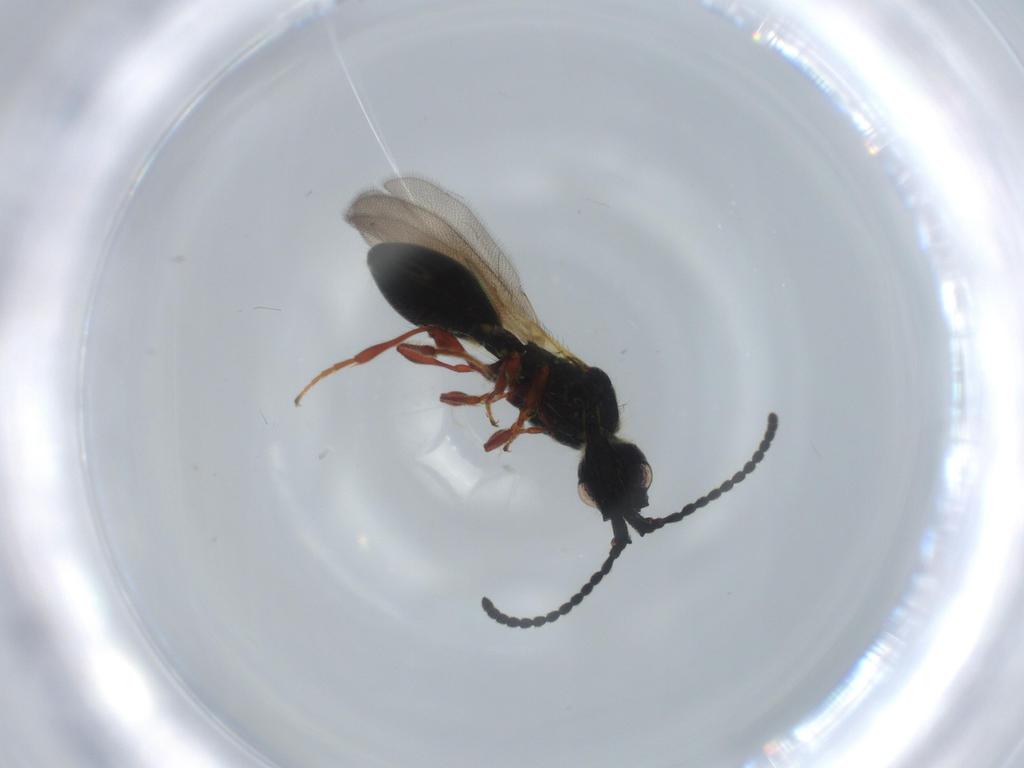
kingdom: Animalia
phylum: Arthropoda
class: Insecta
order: Hymenoptera
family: Diapriidae
